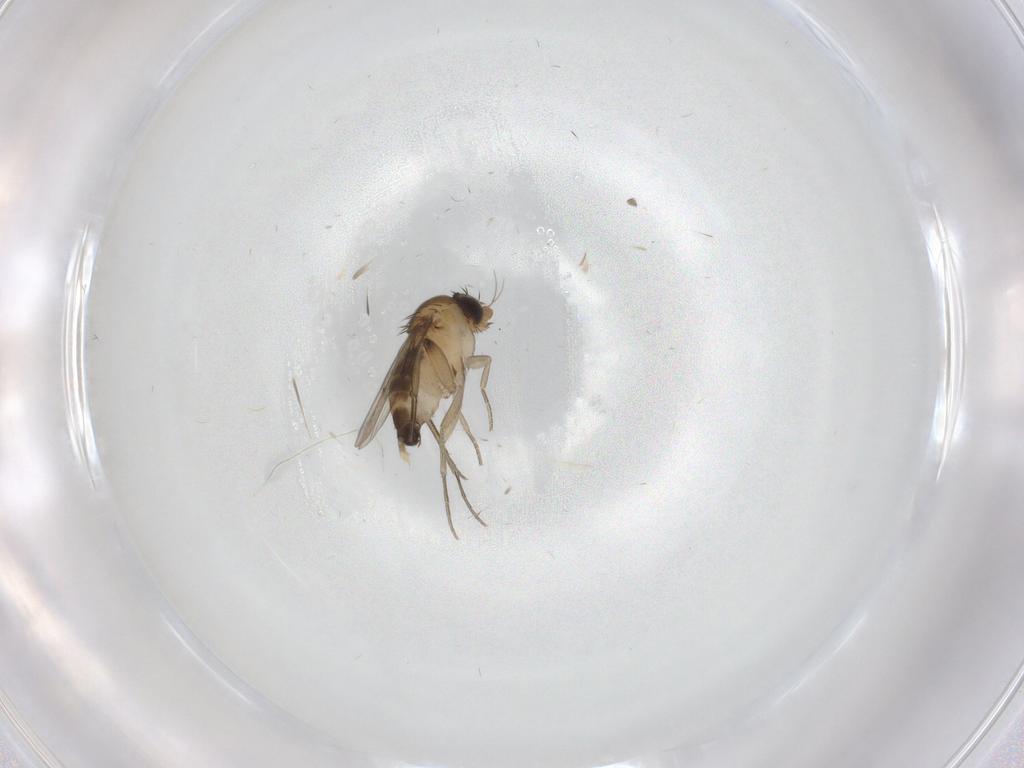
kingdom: Animalia
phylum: Arthropoda
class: Insecta
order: Diptera
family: Phoridae
